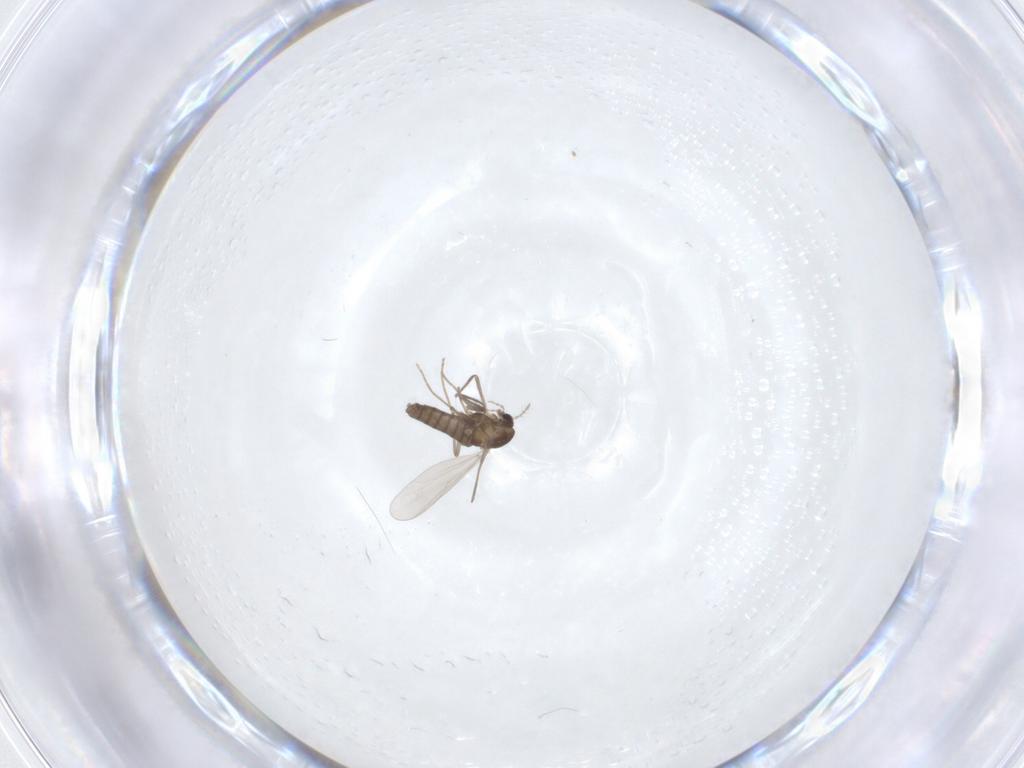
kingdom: Animalia
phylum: Arthropoda
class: Insecta
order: Diptera
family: Chironomidae
